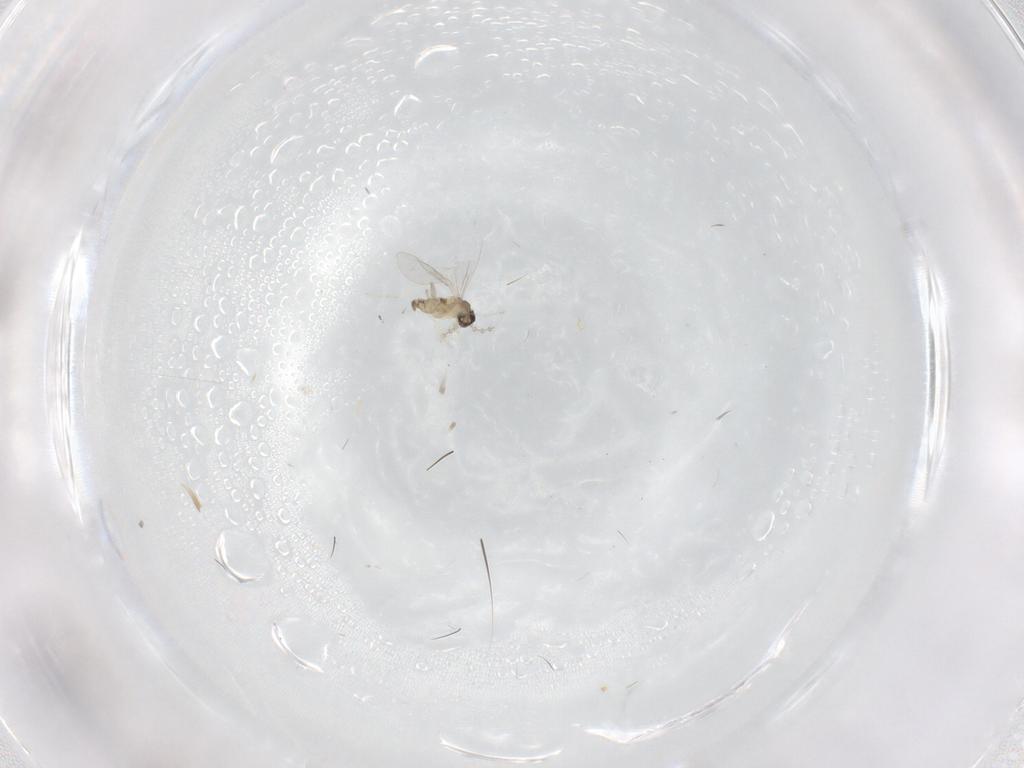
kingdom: Animalia
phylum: Arthropoda
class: Insecta
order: Diptera
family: Cecidomyiidae
